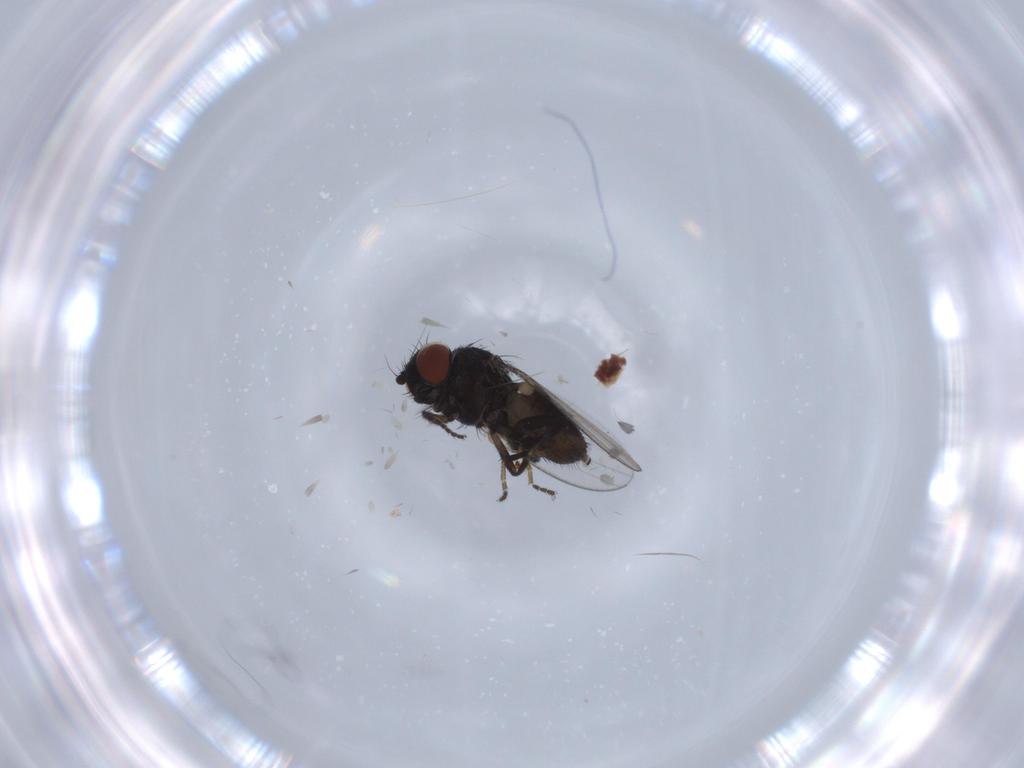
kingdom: Animalia
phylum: Arthropoda
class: Insecta
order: Diptera
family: Milichiidae
